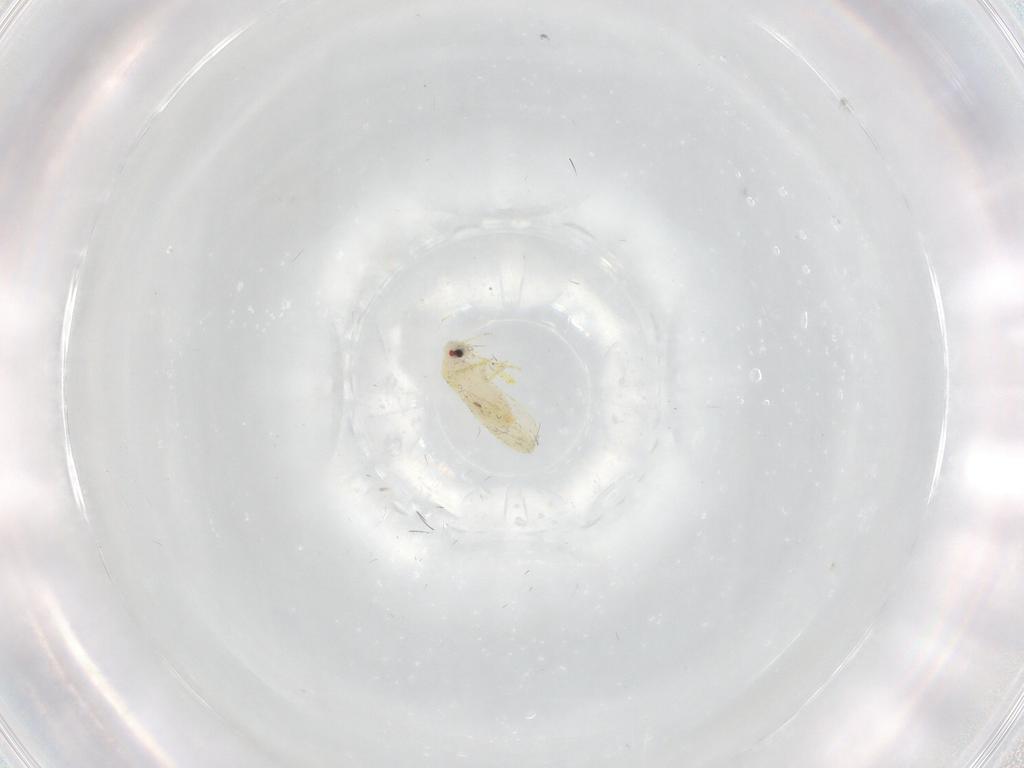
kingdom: Animalia
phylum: Arthropoda
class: Insecta
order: Hemiptera
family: Aleyrodidae
